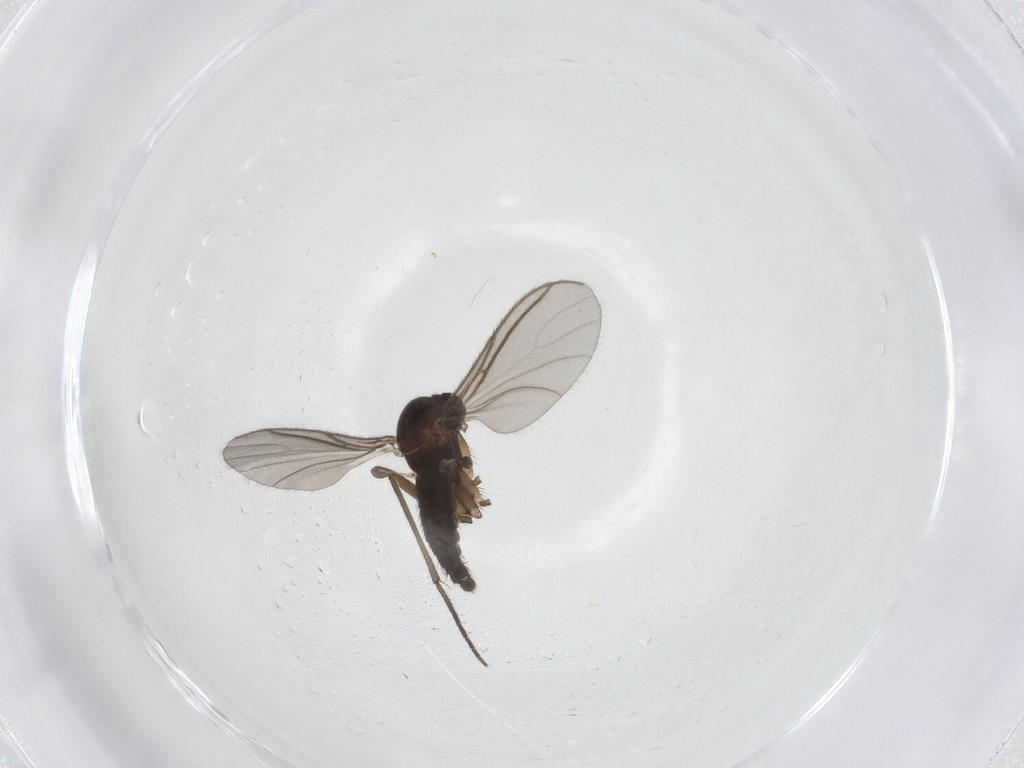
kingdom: Animalia
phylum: Arthropoda
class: Insecta
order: Diptera
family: Sciaridae
